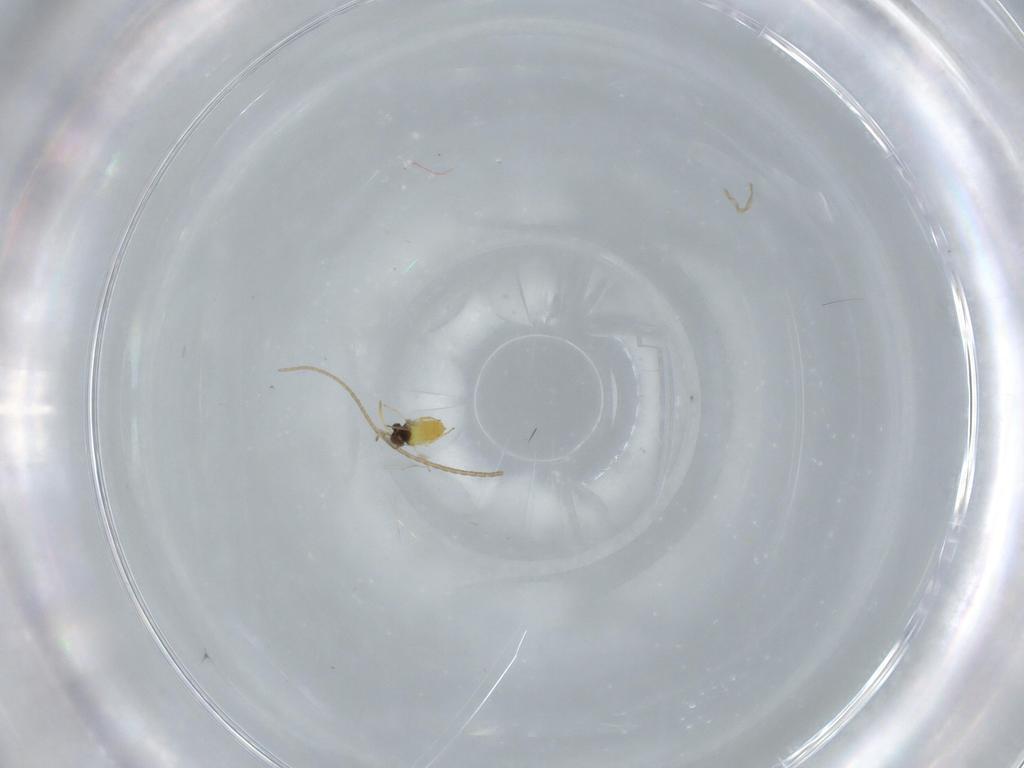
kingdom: Animalia
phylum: Arthropoda
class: Insecta
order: Hymenoptera
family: Aphelinidae
